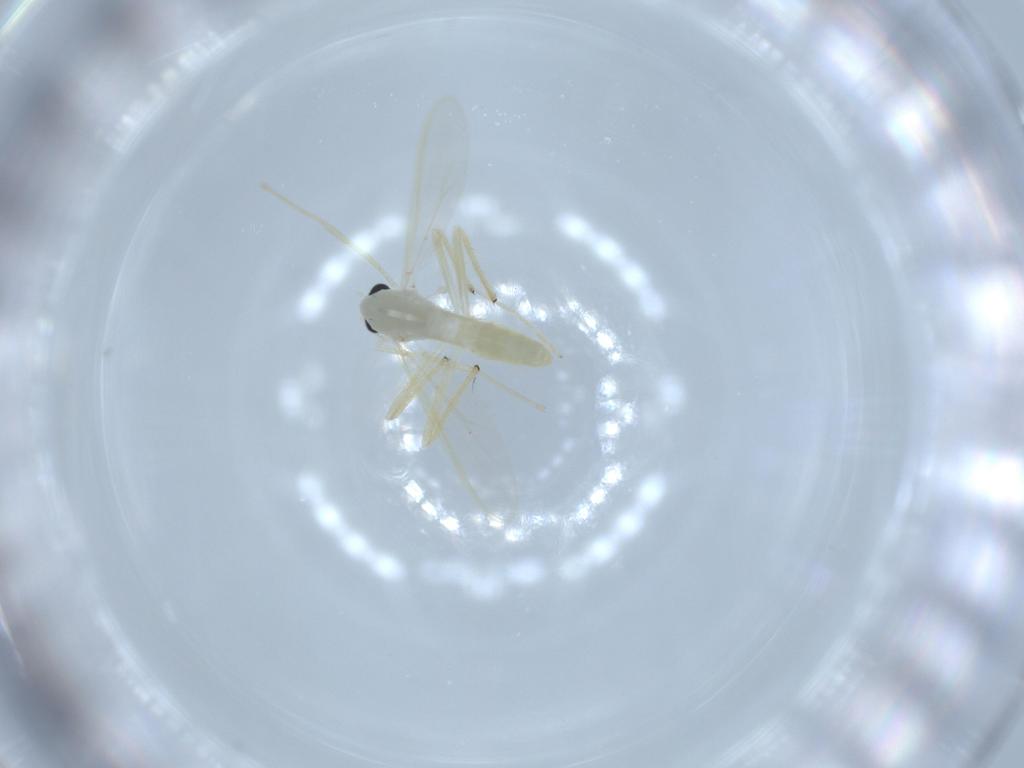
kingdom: Animalia
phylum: Arthropoda
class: Insecta
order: Diptera
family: Chironomidae
